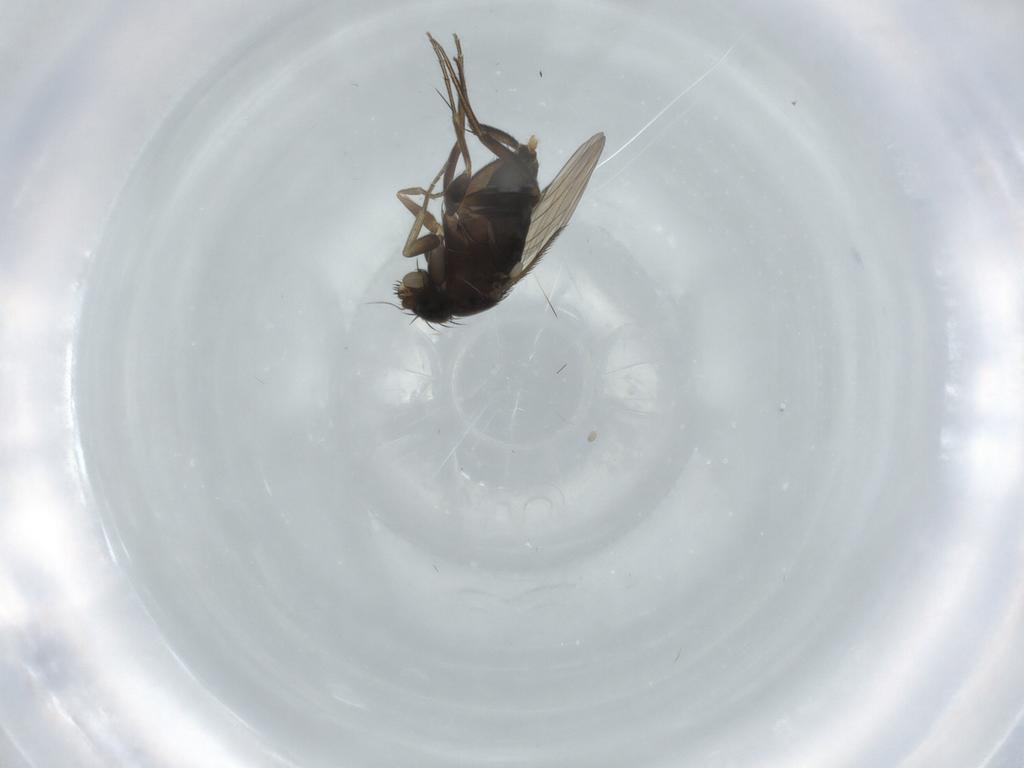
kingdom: Animalia
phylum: Arthropoda
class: Insecta
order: Diptera
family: Phoridae
